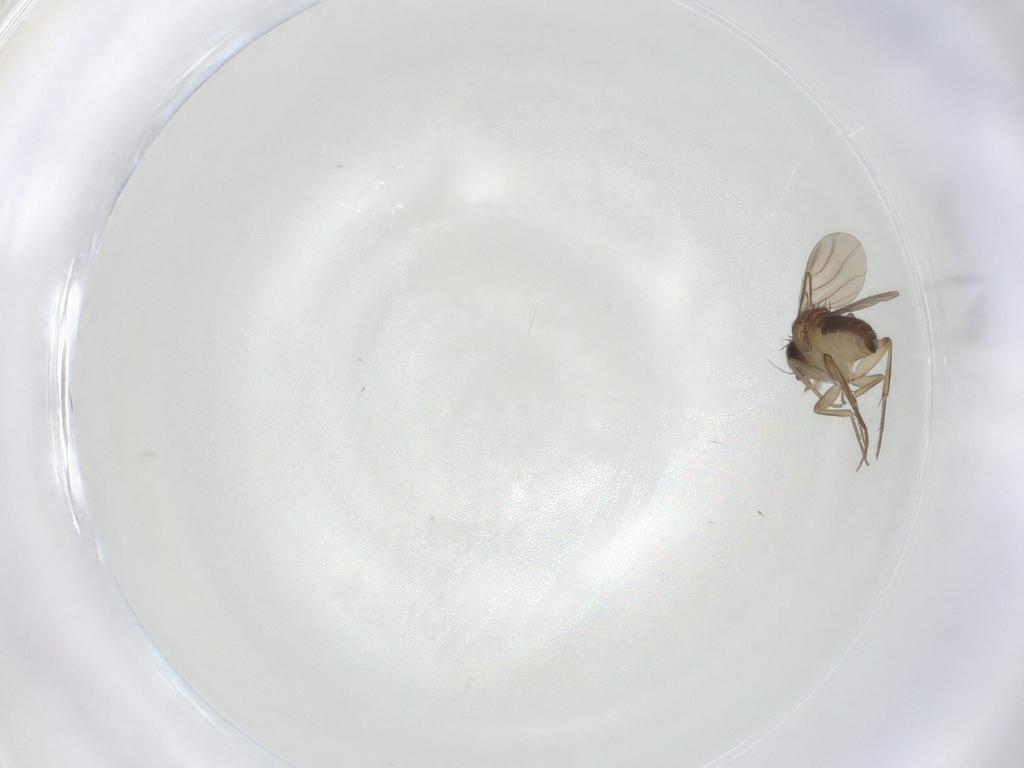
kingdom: Animalia
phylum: Arthropoda
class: Insecta
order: Diptera
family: Phoridae
